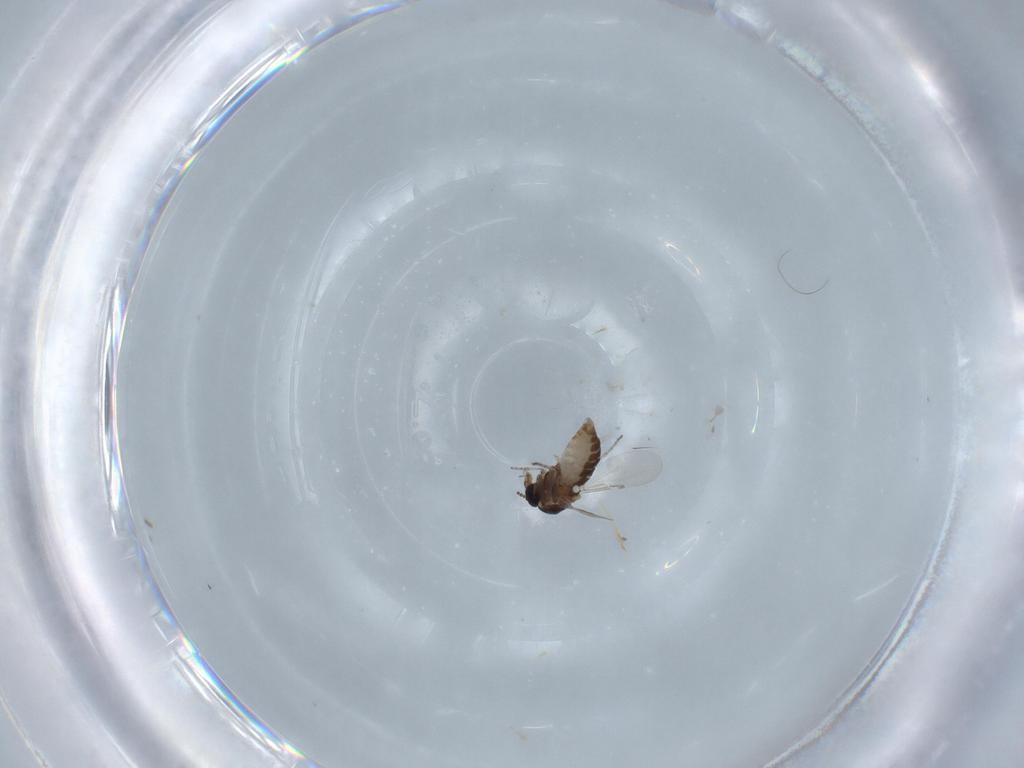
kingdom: Animalia
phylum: Arthropoda
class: Insecta
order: Diptera
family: Ceratopogonidae
